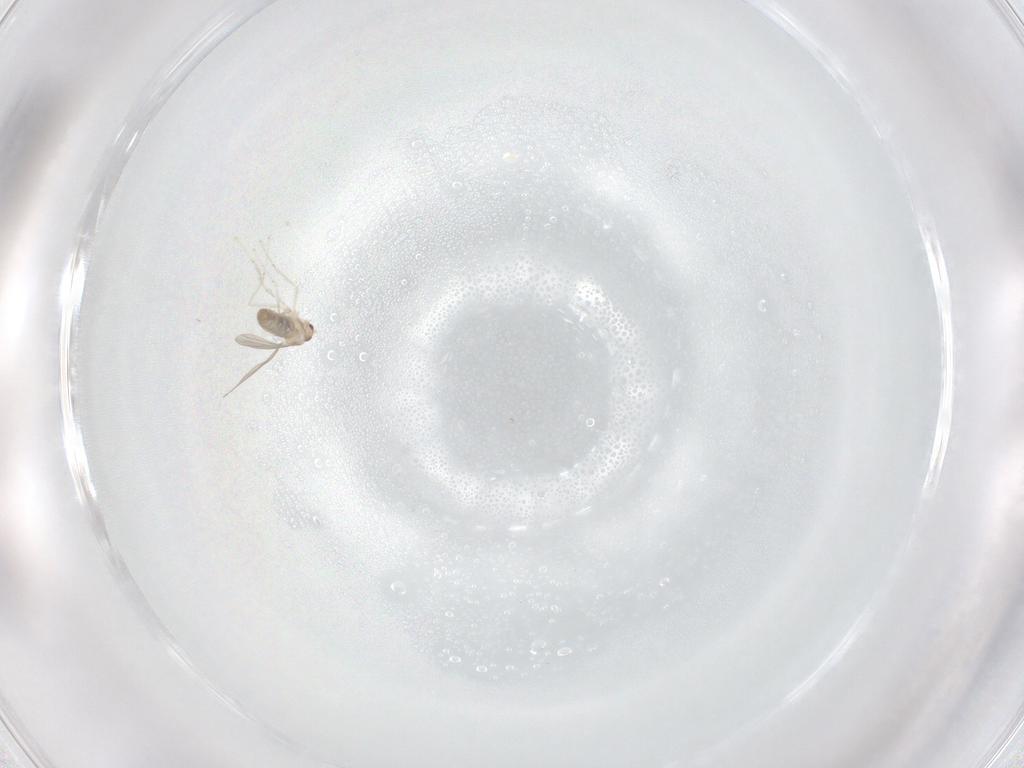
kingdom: Animalia
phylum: Arthropoda
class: Insecta
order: Diptera
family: Cecidomyiidae
